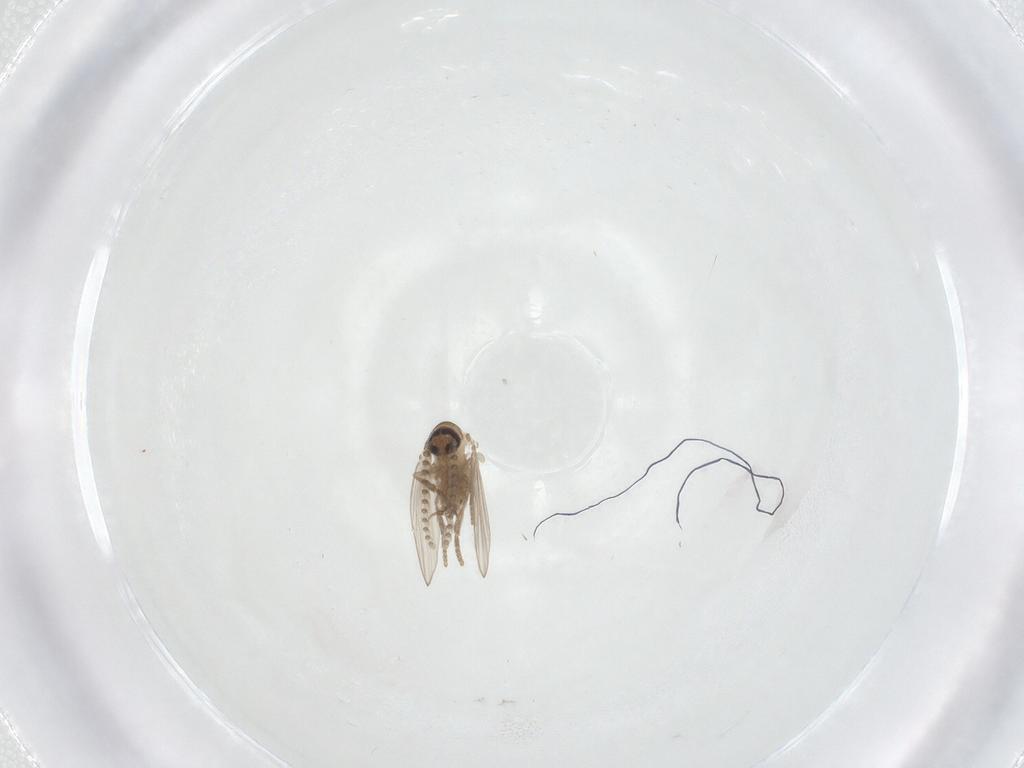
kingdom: Animalia
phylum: Arthropoda
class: Insecta
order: Diptera
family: Psychodidae
